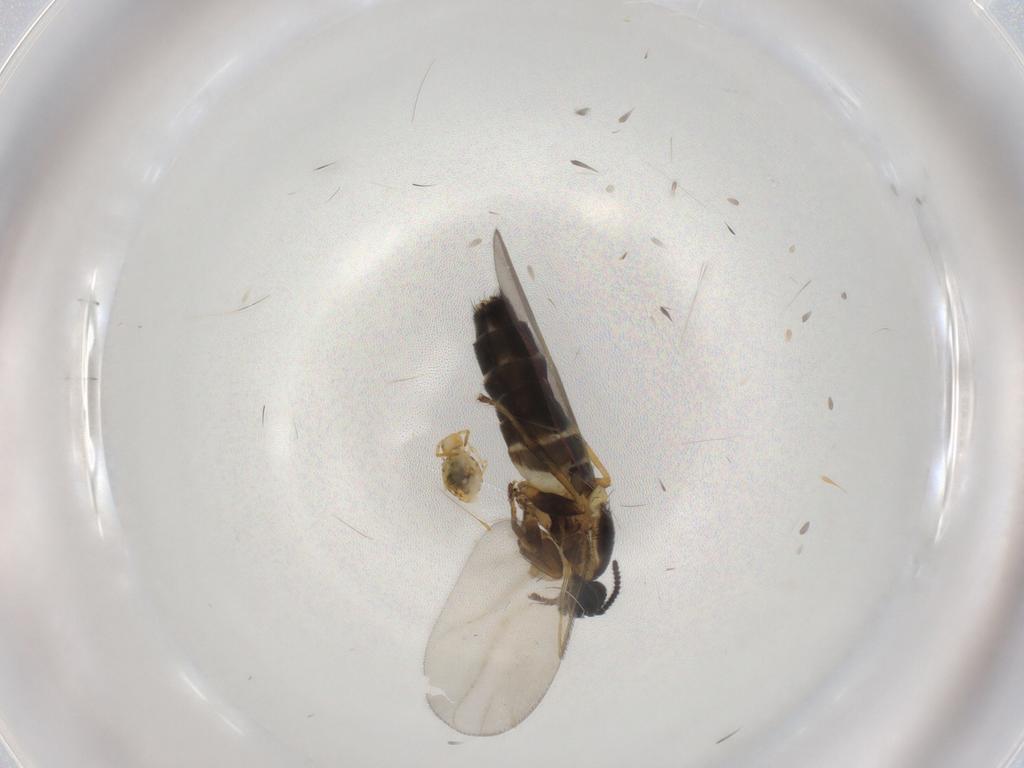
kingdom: Animalia
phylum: Arthropoda
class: Insecta
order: Diptera
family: Scatopsidae
